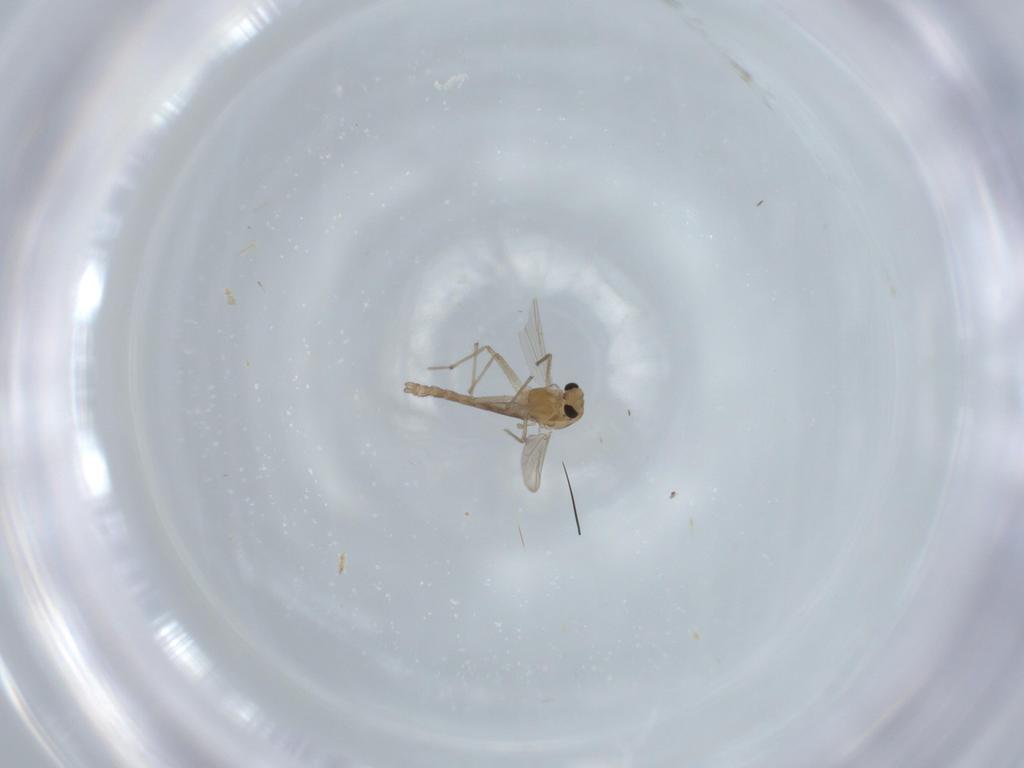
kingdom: Animalia
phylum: Arthropoda
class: Insecta
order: Diptera
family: Chironomidae
